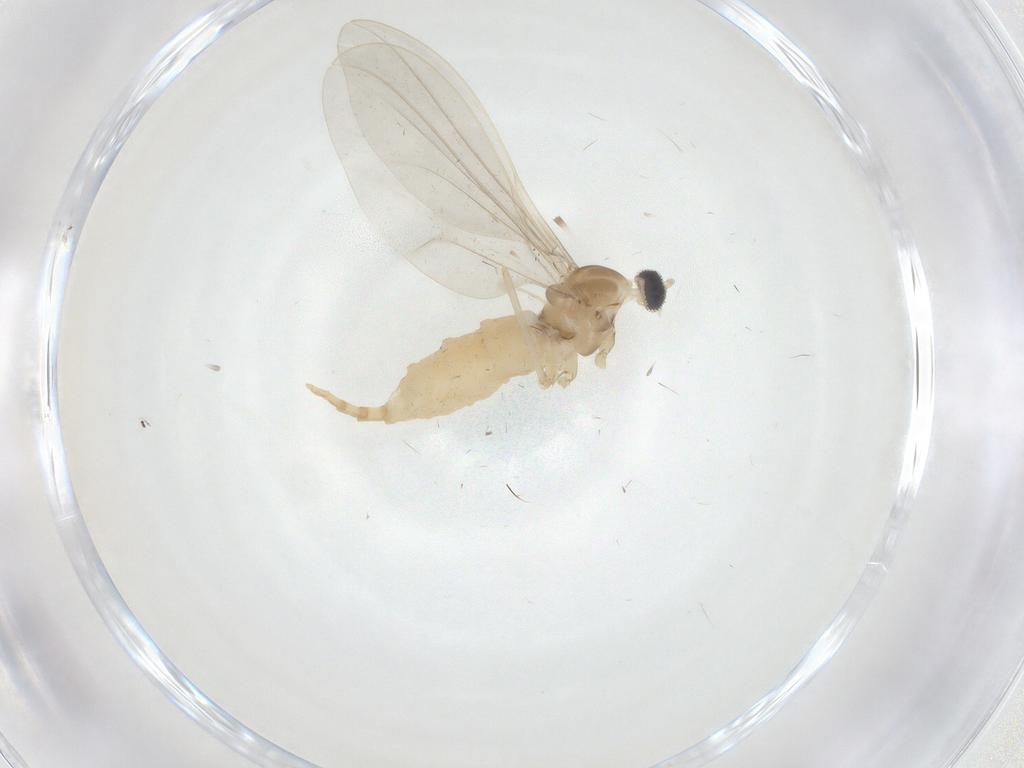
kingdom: Animalia
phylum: Arthropoda
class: Insecta
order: Diptera
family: Cecidomyiidae
